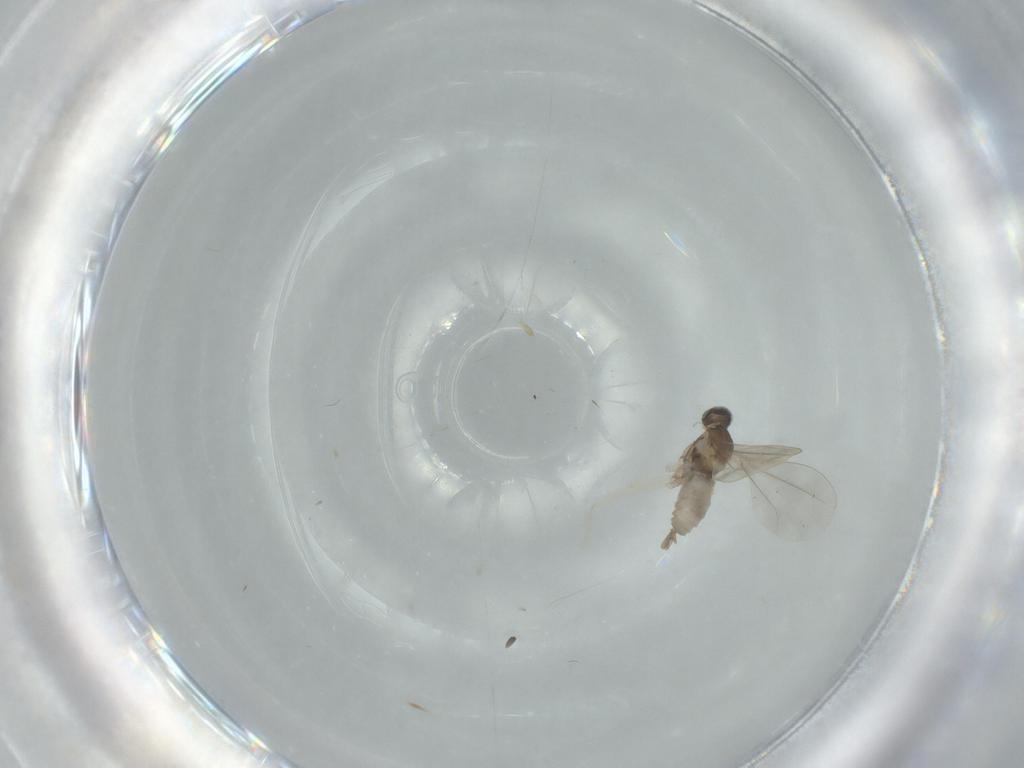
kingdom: Animalia
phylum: Arthropoda
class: Insecta
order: Diptera
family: Cecidomyiidae
